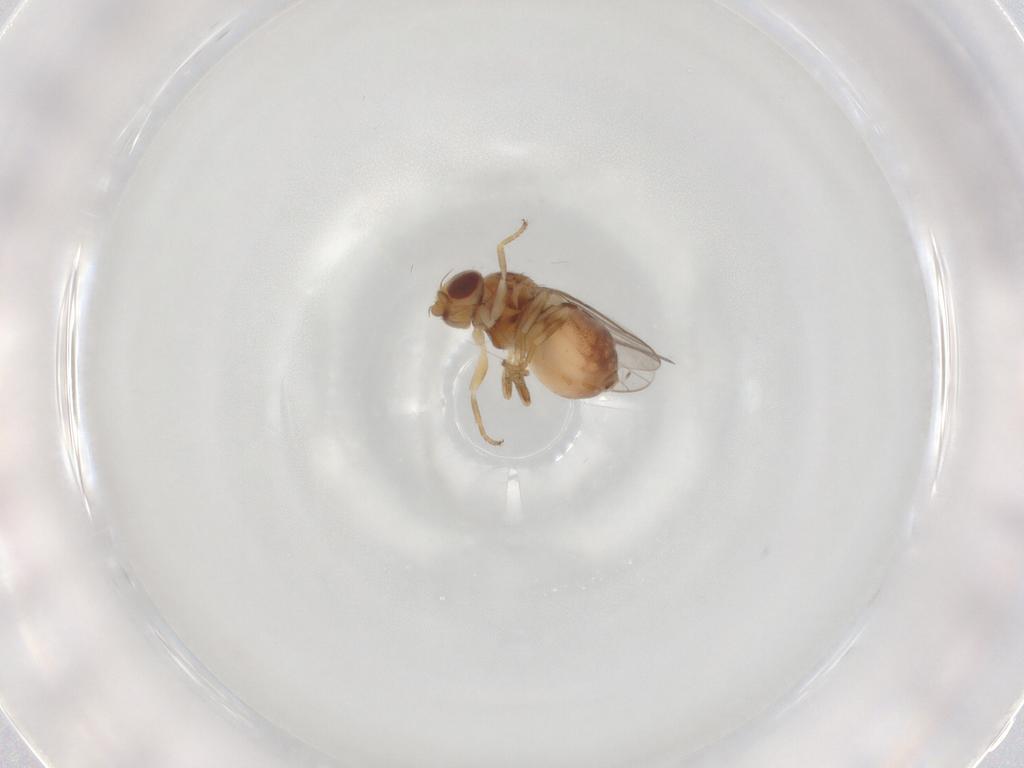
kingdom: Animalia
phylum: Arthropoda
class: Insecta
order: Diptera
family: Chloropidae
